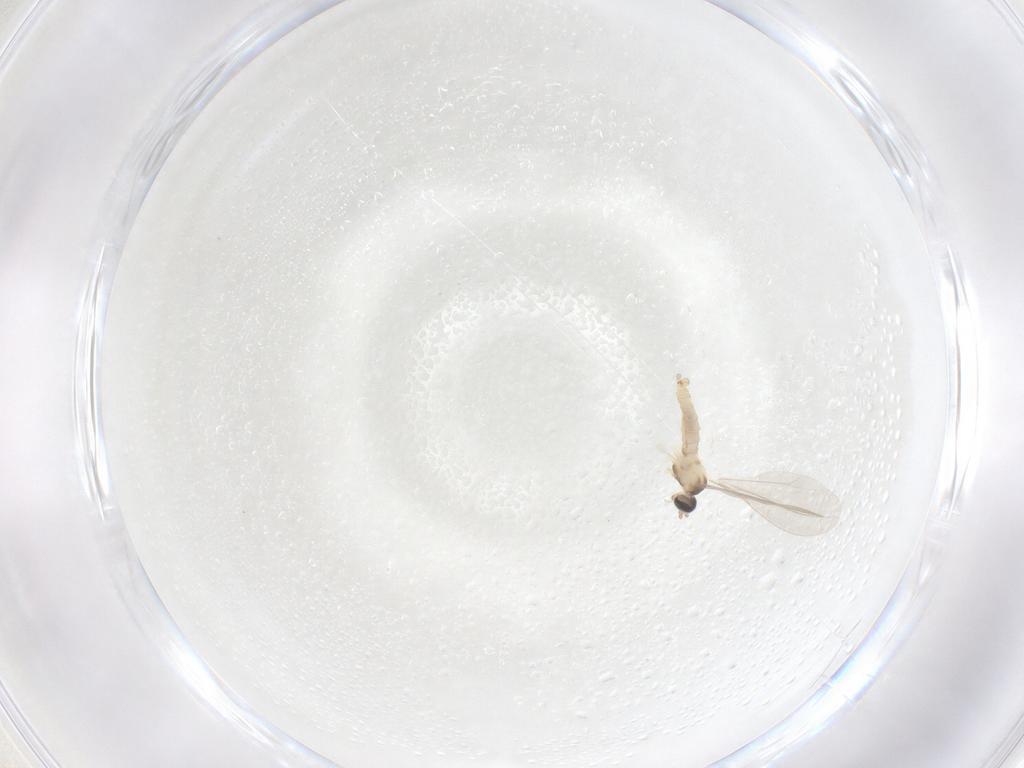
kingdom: Animalia
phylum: Arthropoda
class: Insecta
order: Diptera
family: Cecidomyiidae
